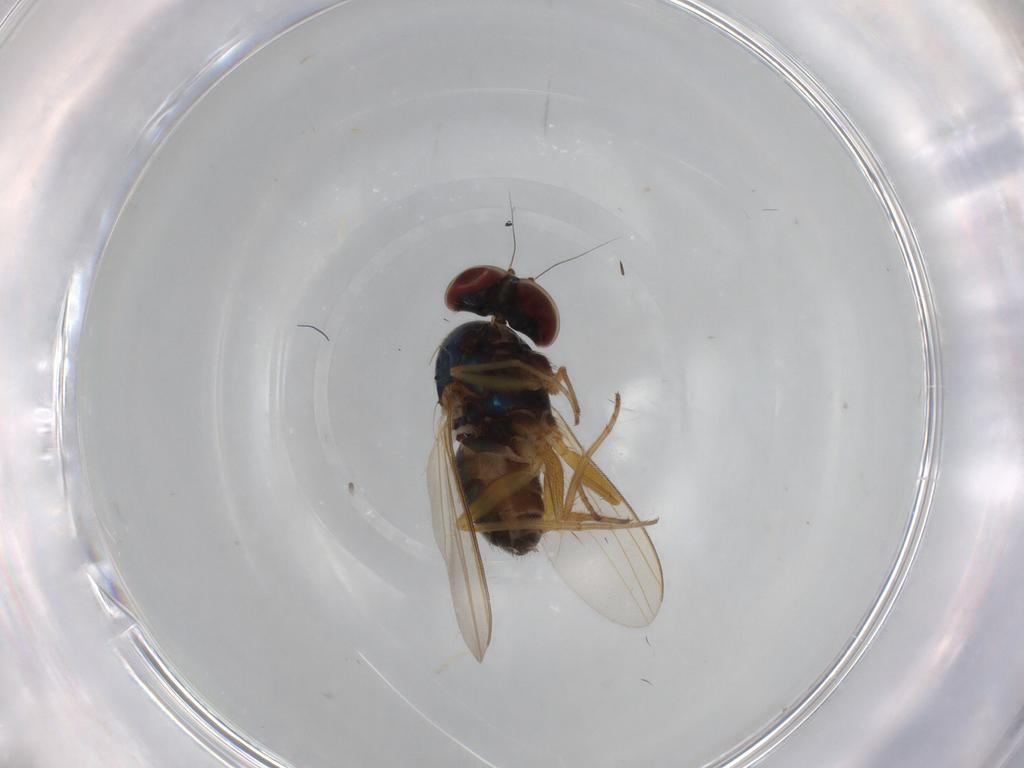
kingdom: Animalia
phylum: Arthropoda
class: Insecta
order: Diptera
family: Dolichopodidae
